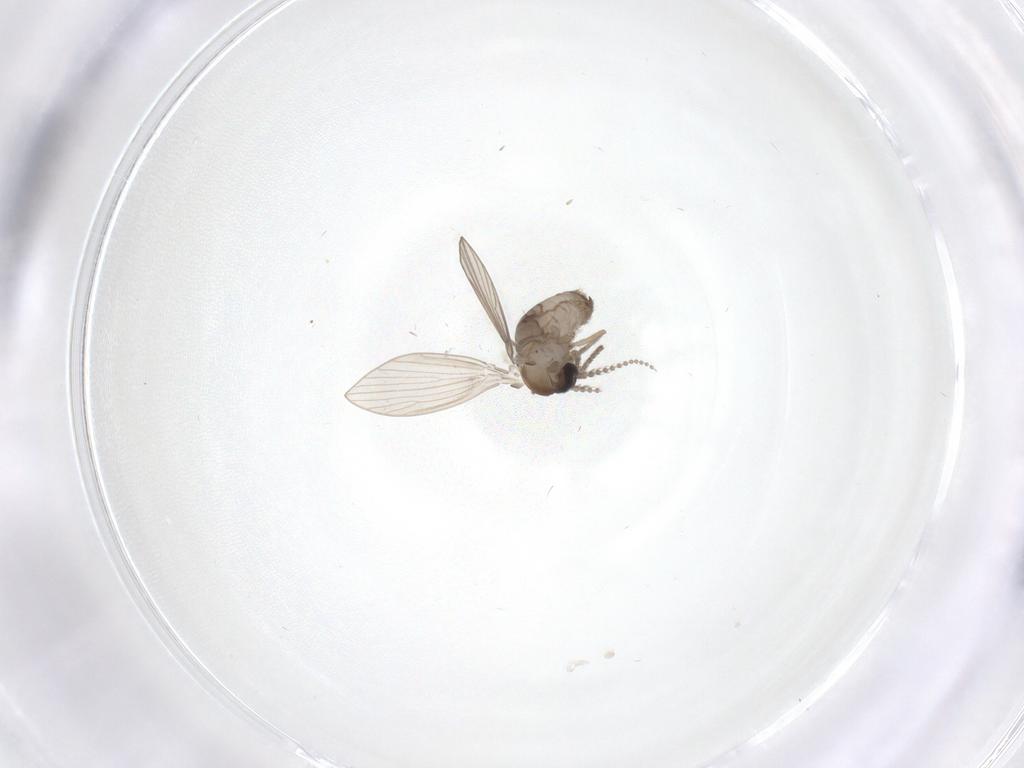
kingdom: Animalia
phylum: Arthropoda
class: Insecta
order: Diptera
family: Psychodidae
